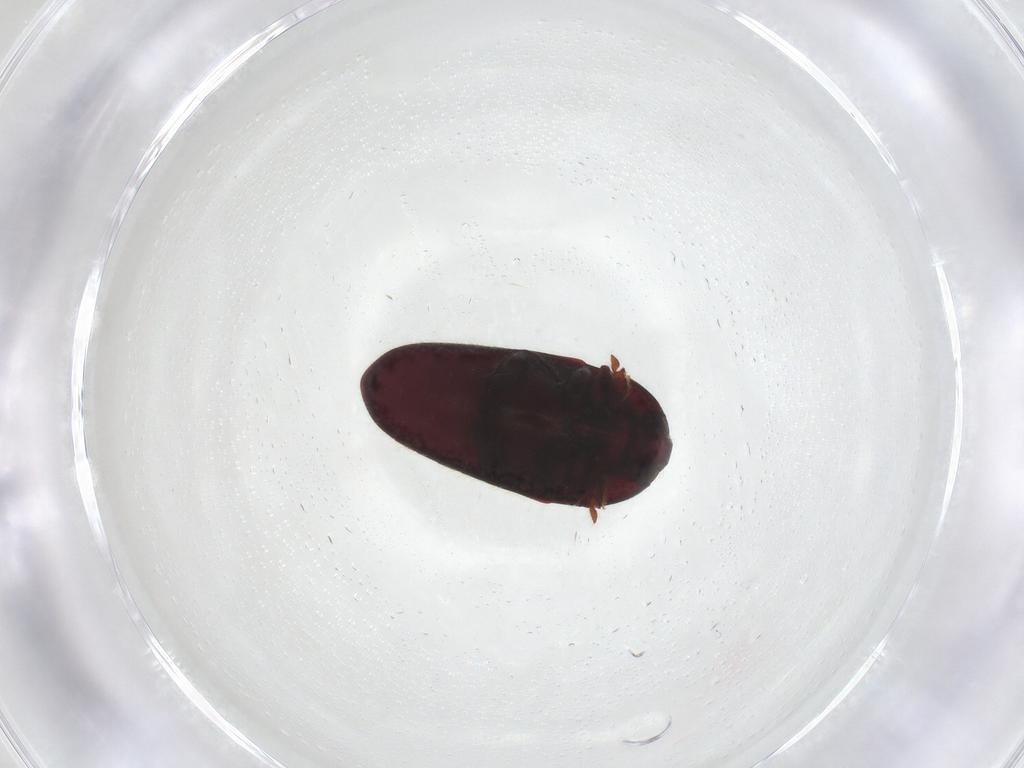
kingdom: Animalia
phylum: Arthropoda
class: Insecta
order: Coleoptera
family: Throscidae
